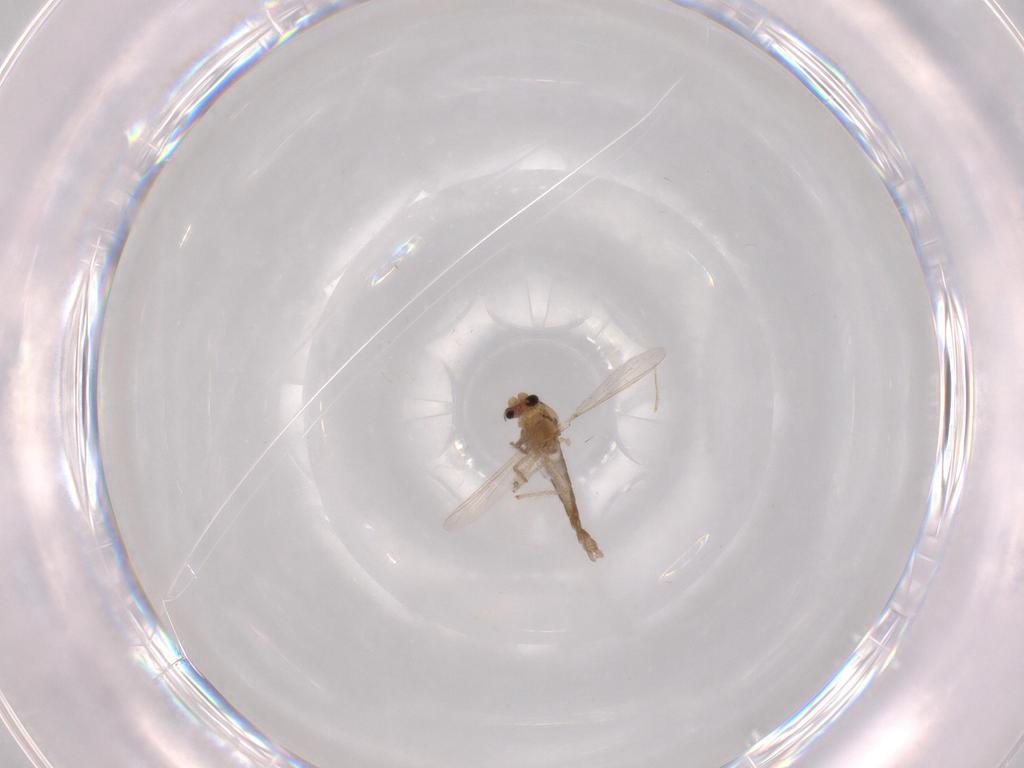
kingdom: Animalia
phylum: Arthropoda
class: Insecta
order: Diptera
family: Chironomidae
